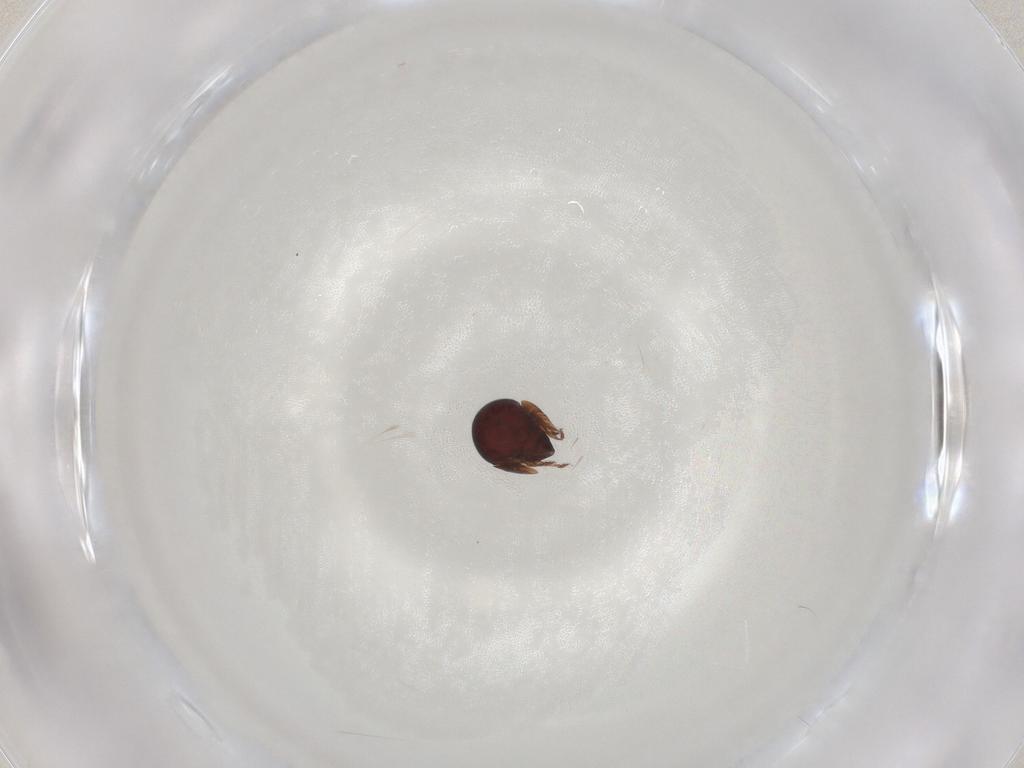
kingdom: Animalia
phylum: Arthropoda
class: Arachnida
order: Sarcoptiformes
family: Galumnidae
